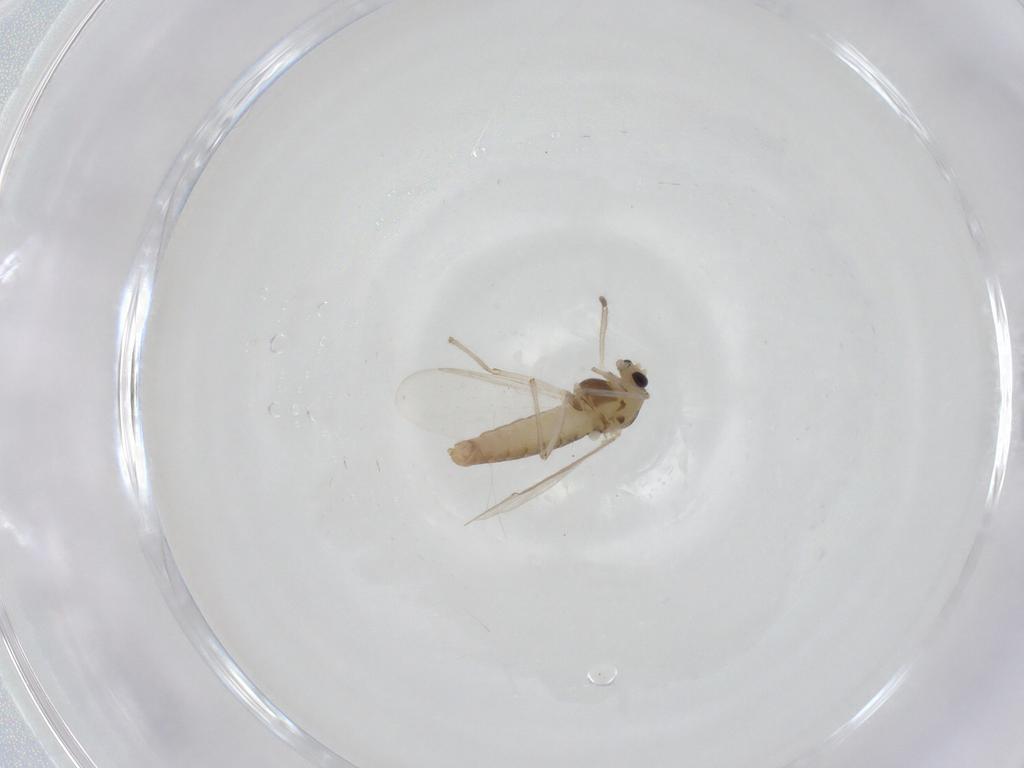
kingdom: Animalia
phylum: Arthropoda
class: Insecta
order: Diptera
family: Chironomidae
